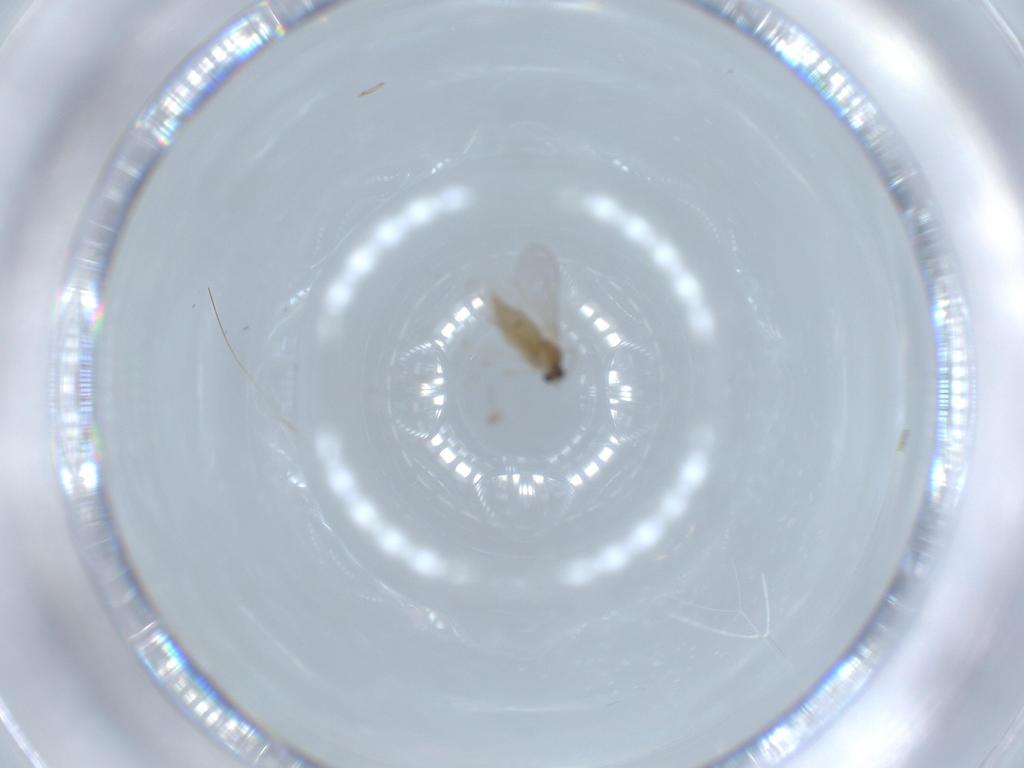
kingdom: Animalia
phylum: Arthropoda
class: Insecta
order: Diptera
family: Cecidomyiidae
